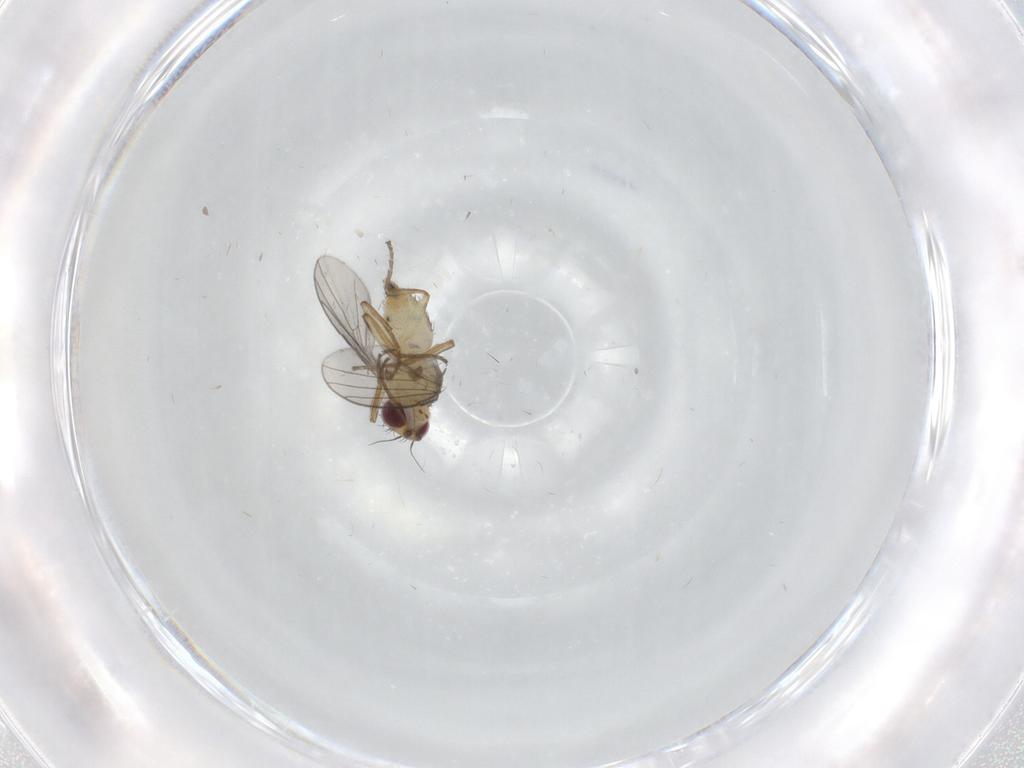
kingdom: Animalia
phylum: Arthropoda
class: Insecta
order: Diptera
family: Agromyzidae
